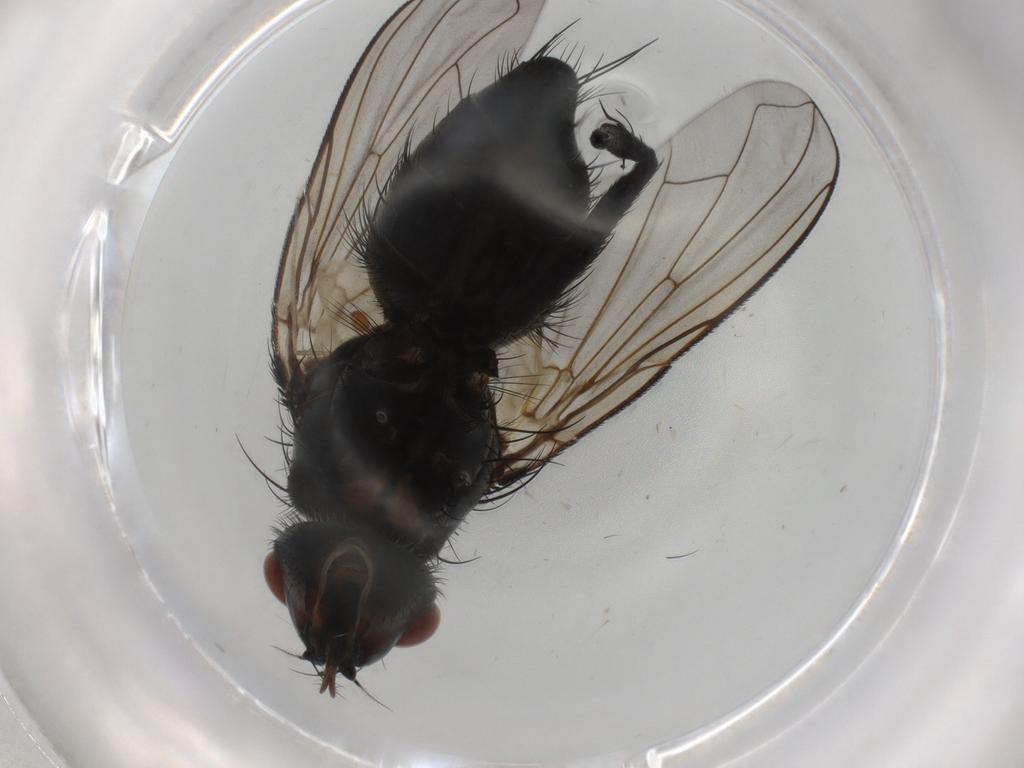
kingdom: Animalia
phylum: Arthropoda
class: Insecta
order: Diptera
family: Tachinidae
